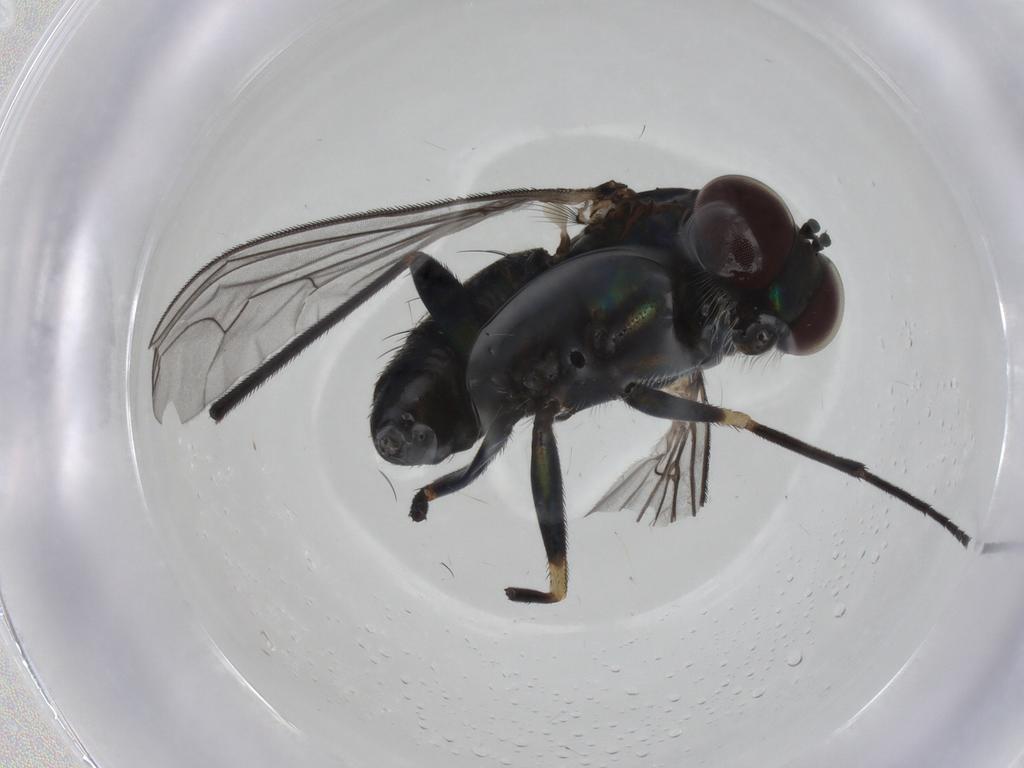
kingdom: Animalia
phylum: Arthropoda
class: Insecta
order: Diptera
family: Dolichopodidae
